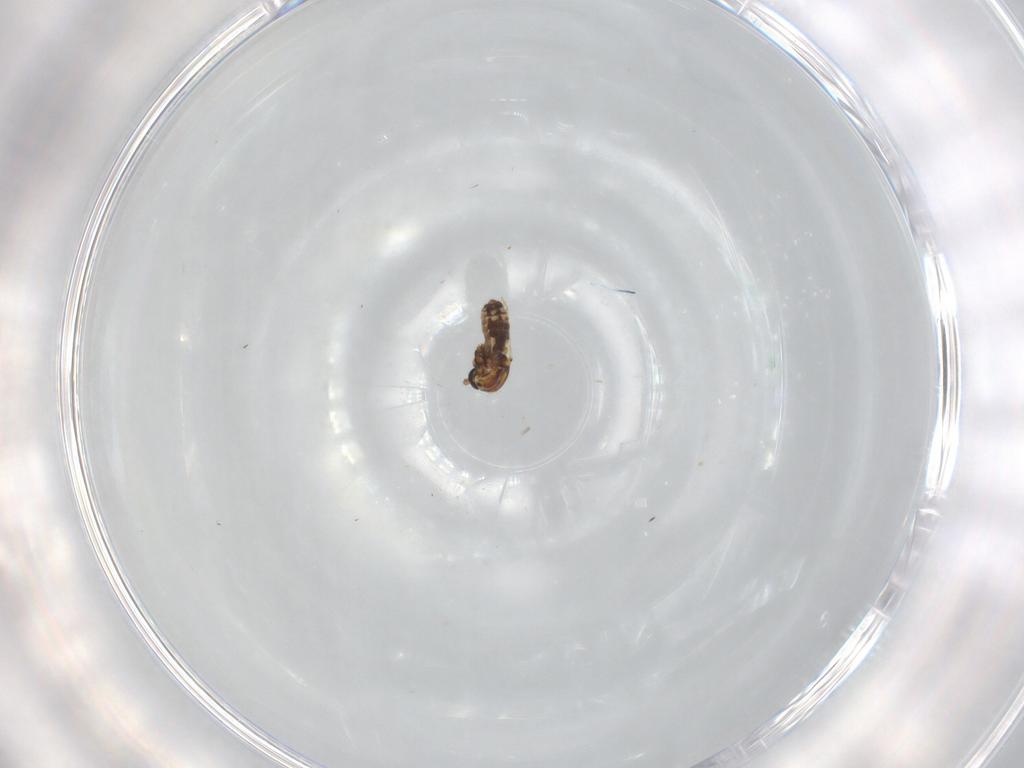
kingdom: Animalia
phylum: Arthropoda
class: Insecta
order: Diptera
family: Ceratopogonidae
